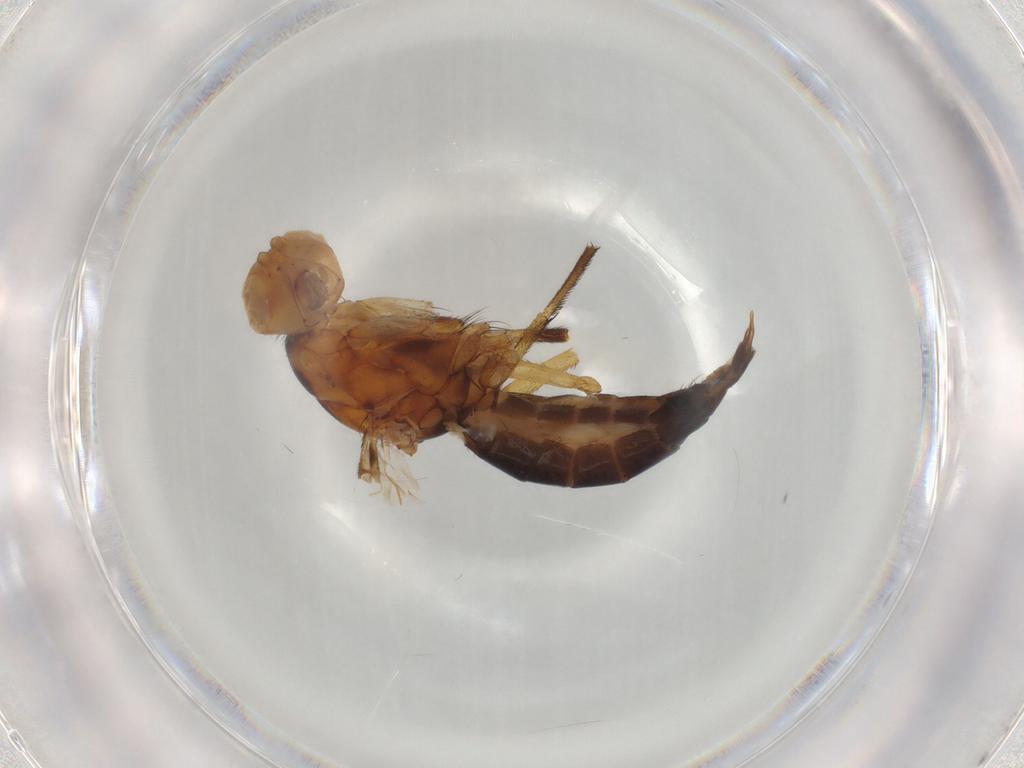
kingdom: Animalia
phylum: Arthropoda
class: Insecta
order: Diptera
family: Piophilidae
